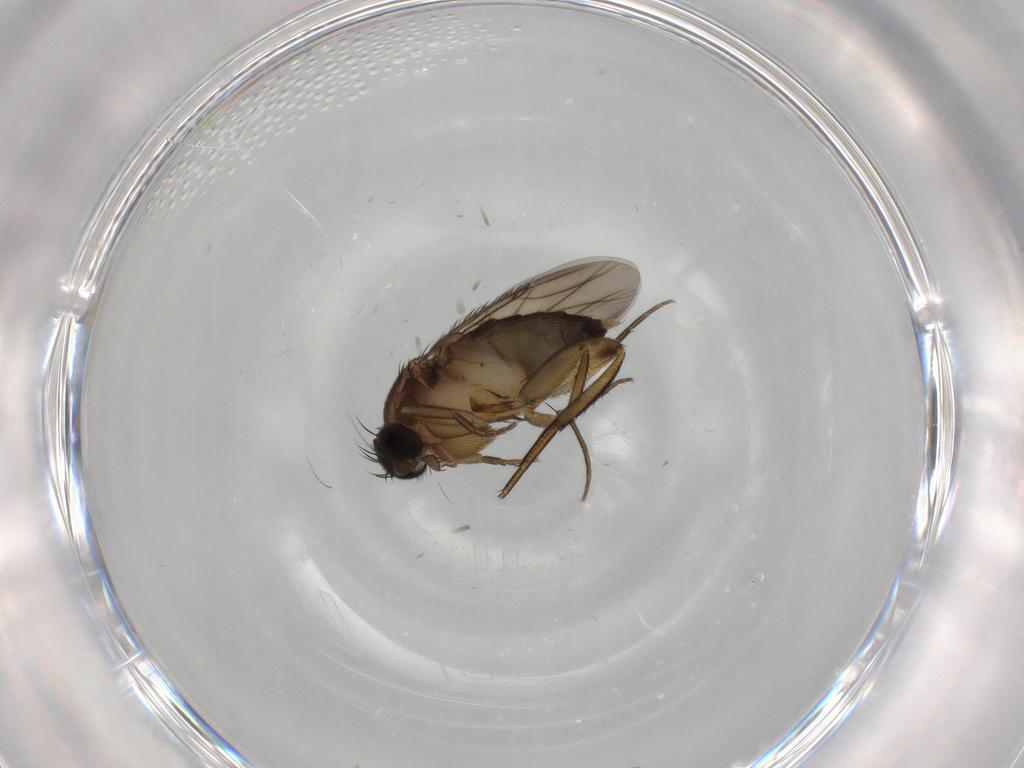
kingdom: Animalia
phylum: Arthropoda
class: Insecta
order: Diptera
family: Phoridae
